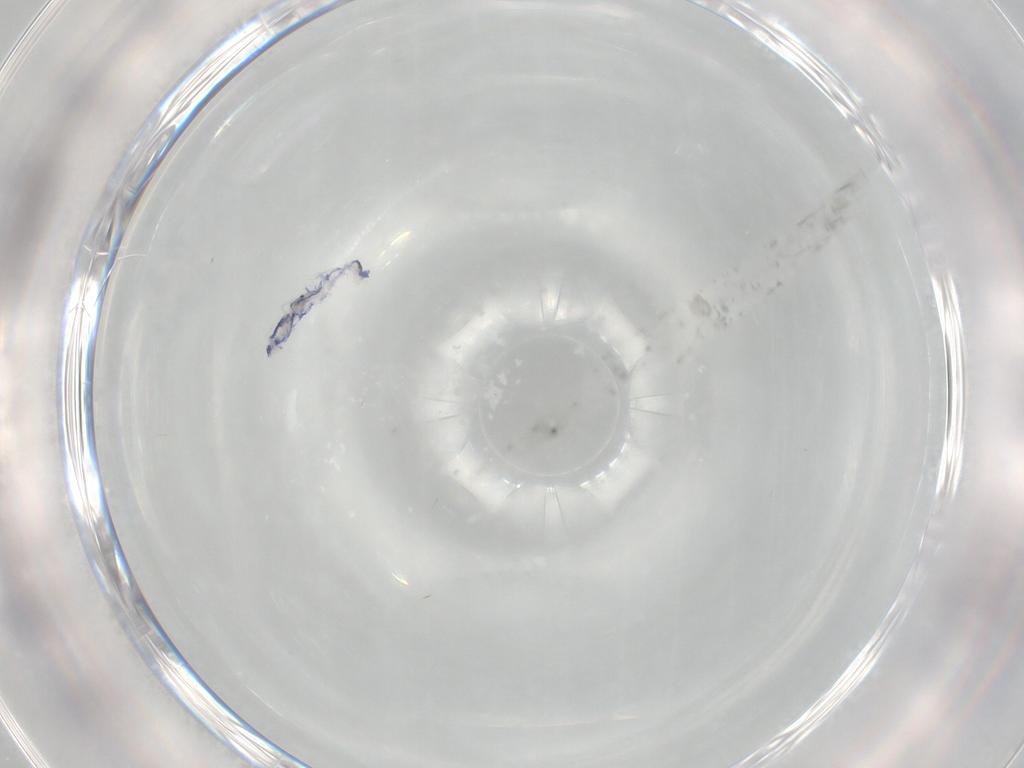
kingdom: Animalia
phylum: Arthropoda
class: Collembola
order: Entomobryomorpha
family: Entomobryidae
